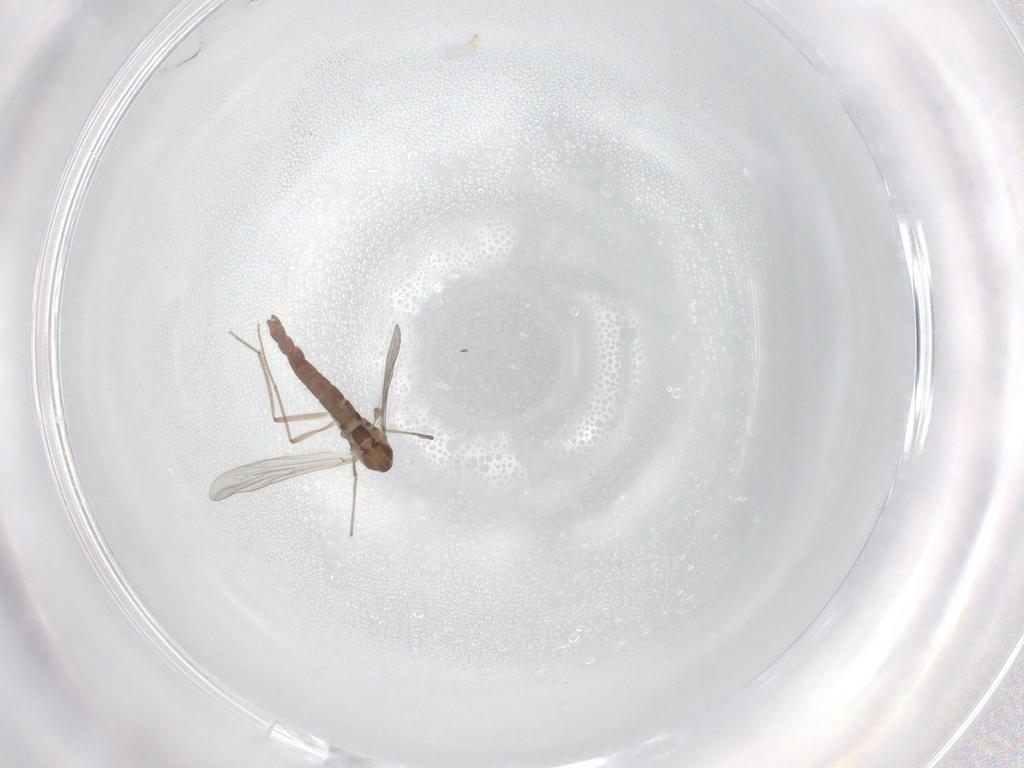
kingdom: Animalia
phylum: Arthropoda
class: Insecta
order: Diptera
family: Chironomidae
